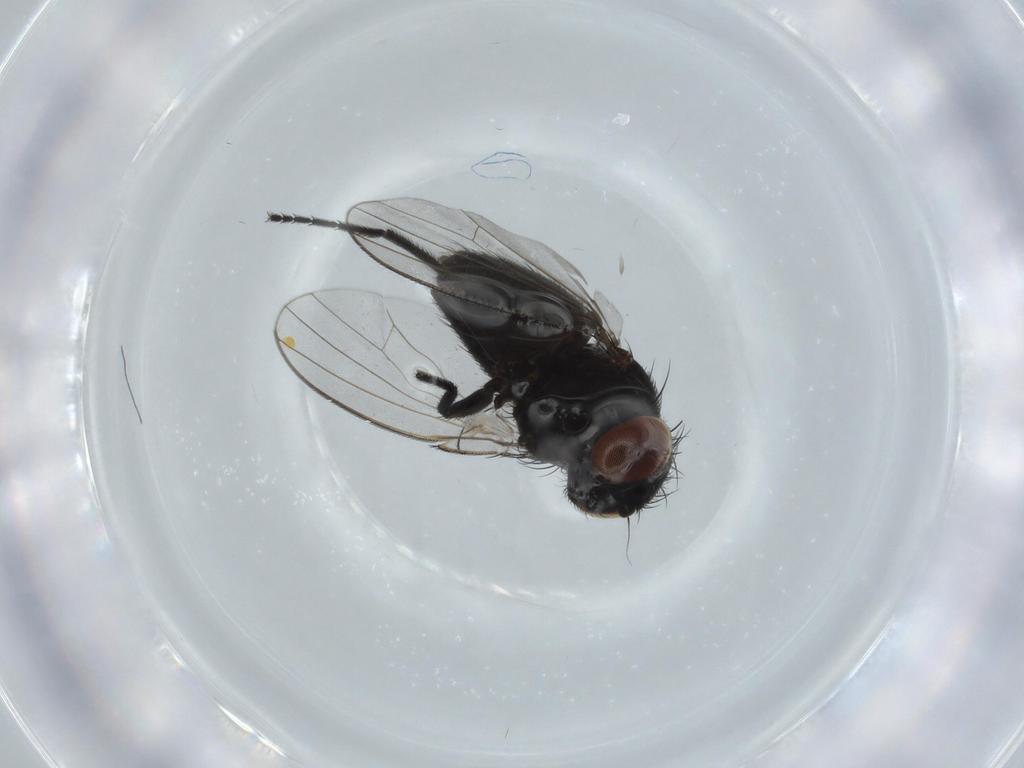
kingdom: Animalia
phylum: Arthropoda
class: Insecta
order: Diptera
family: Milichiidae
